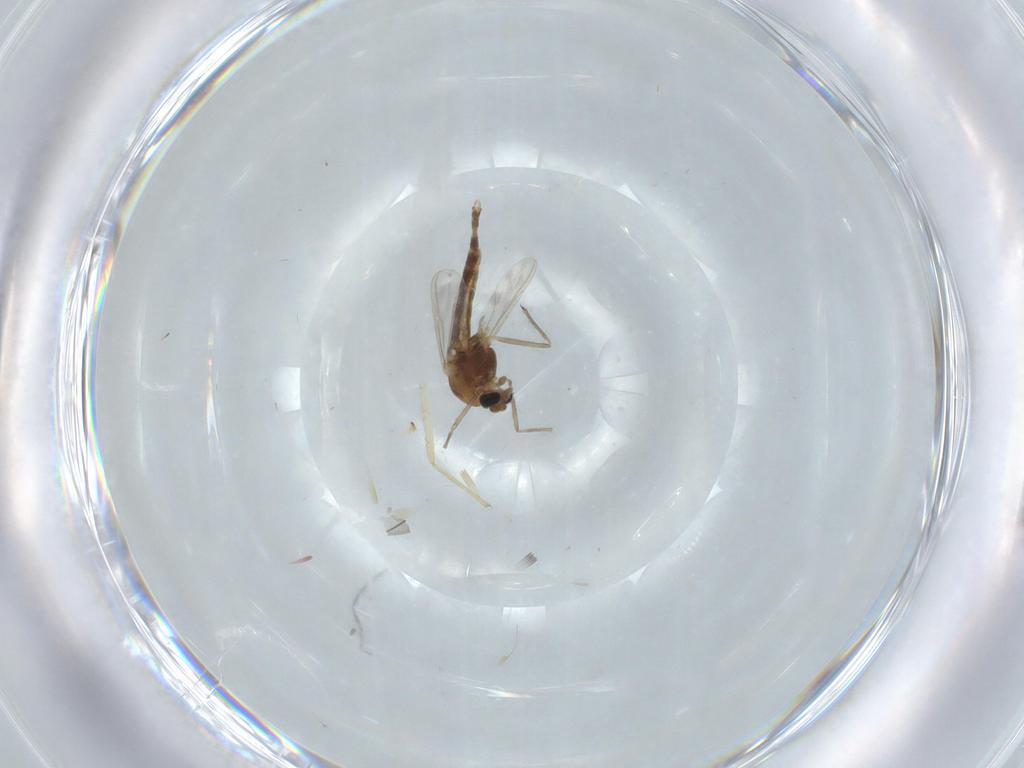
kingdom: Animalia
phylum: Arthropoda
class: Insecta
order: Diptera
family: Chironomidae
